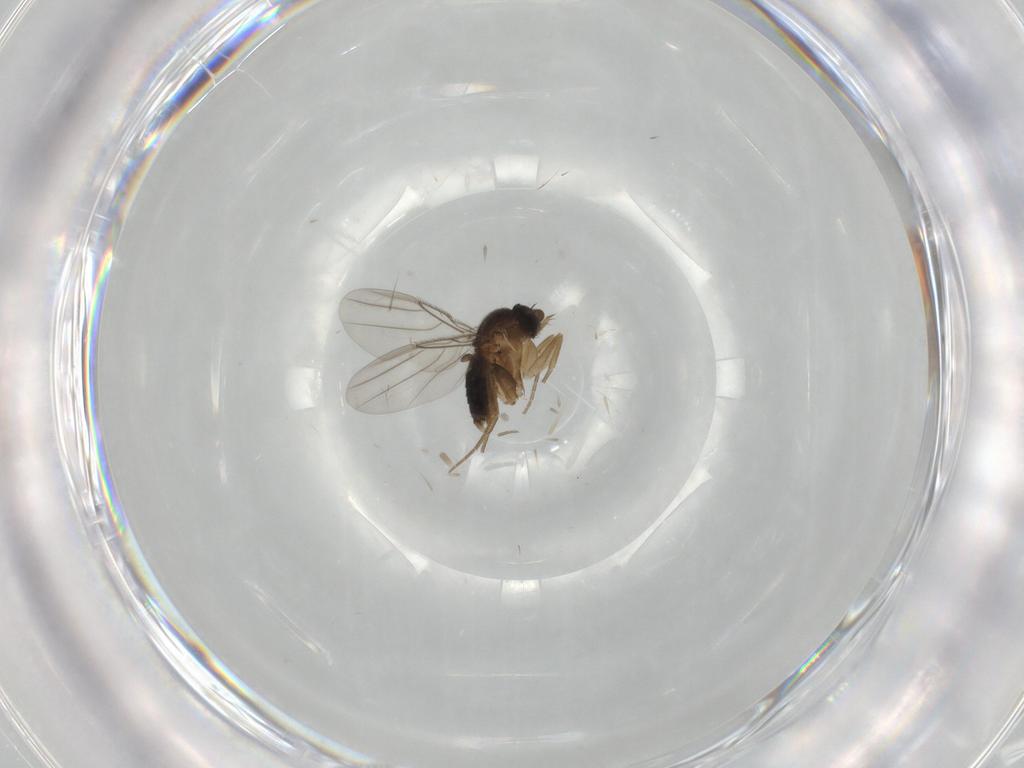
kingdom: Animalia
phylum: Arthropoda
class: Insecta
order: Diptera
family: Phoridae
